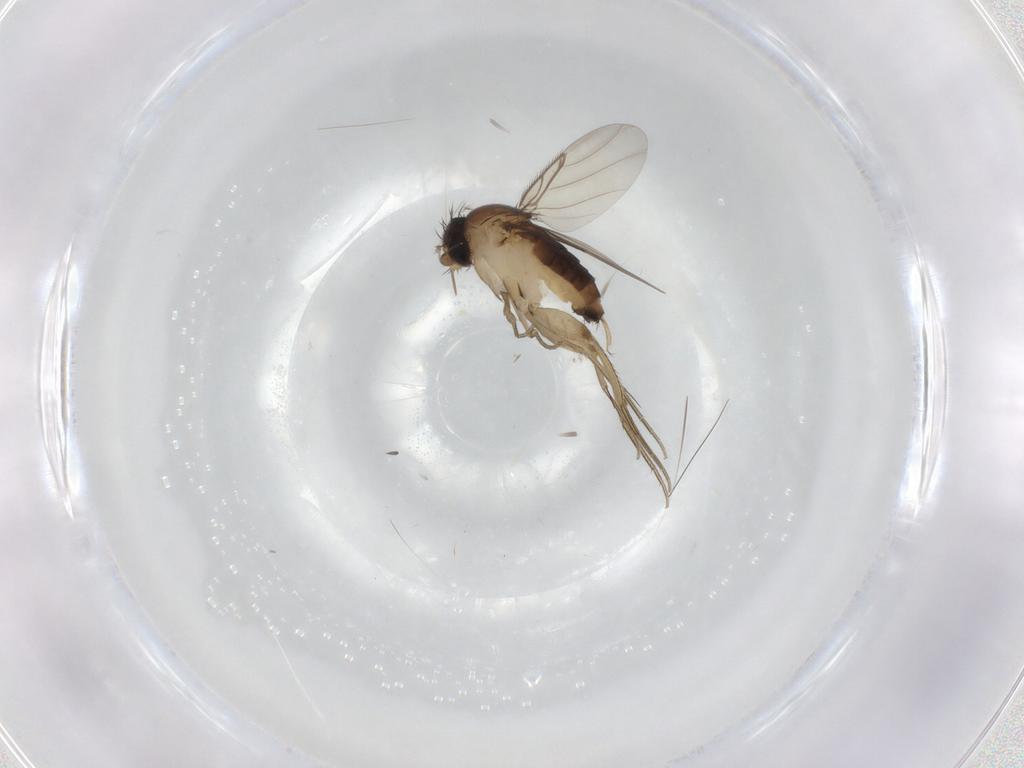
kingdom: Animalia
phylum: Arthropoda
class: Insecta
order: Diptera
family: Phoridae
